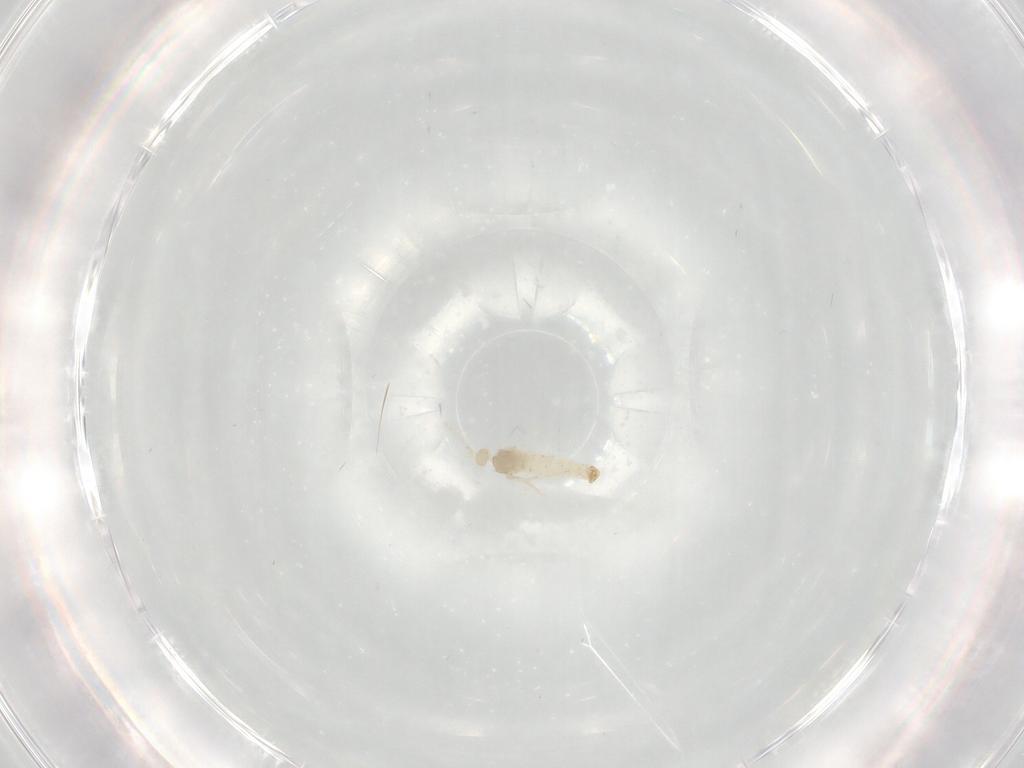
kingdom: Animalia
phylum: Arthropoda
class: Insecta
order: Diptera
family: Cecidomyiidae
